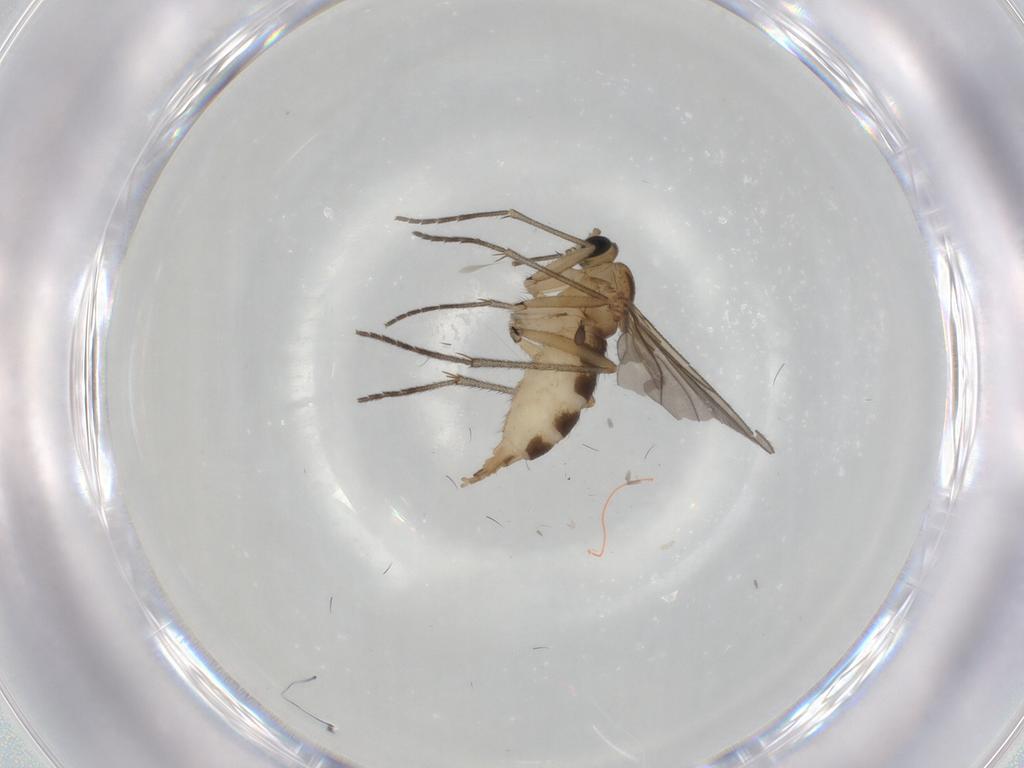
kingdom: Animalia
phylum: Arthropoda
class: Insecta
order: Diptera
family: Sciaridae
